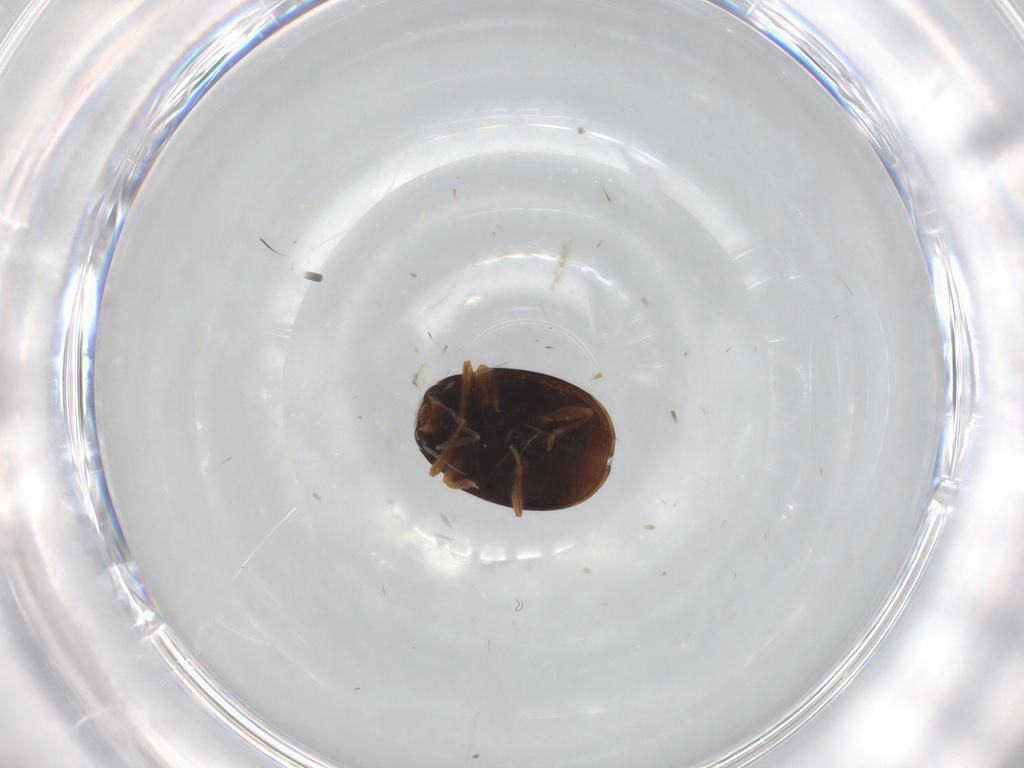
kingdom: Animalia
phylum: Arthropoda
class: Insecta
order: Coleoptera
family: Coccinellidae
